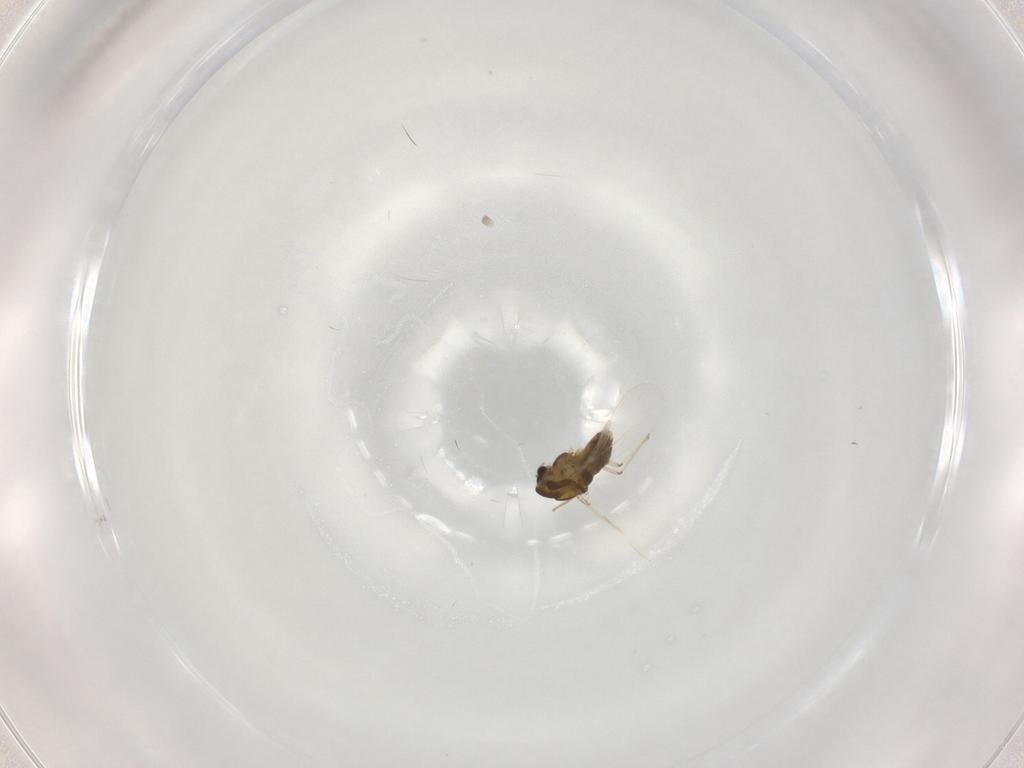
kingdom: Animalia
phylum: Arthropoda
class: Insecta
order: Diptera
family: Chironomidae
